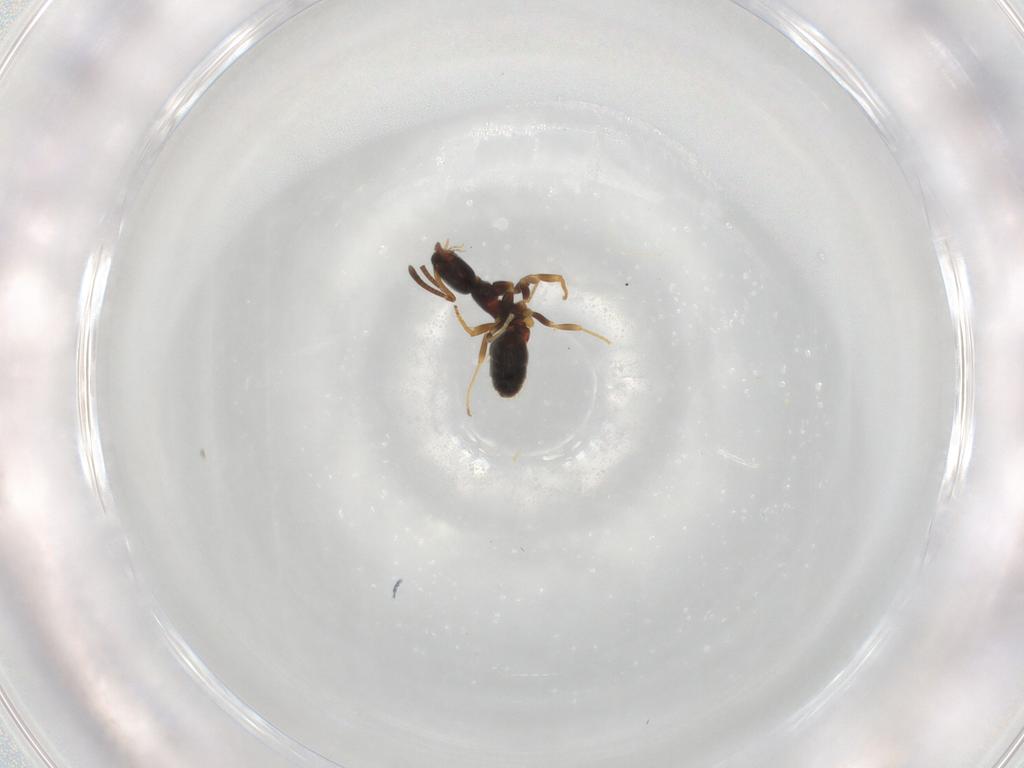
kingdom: Animalia
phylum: Arthropoda
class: Insecta
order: Hymenoptera
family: Formicidae
